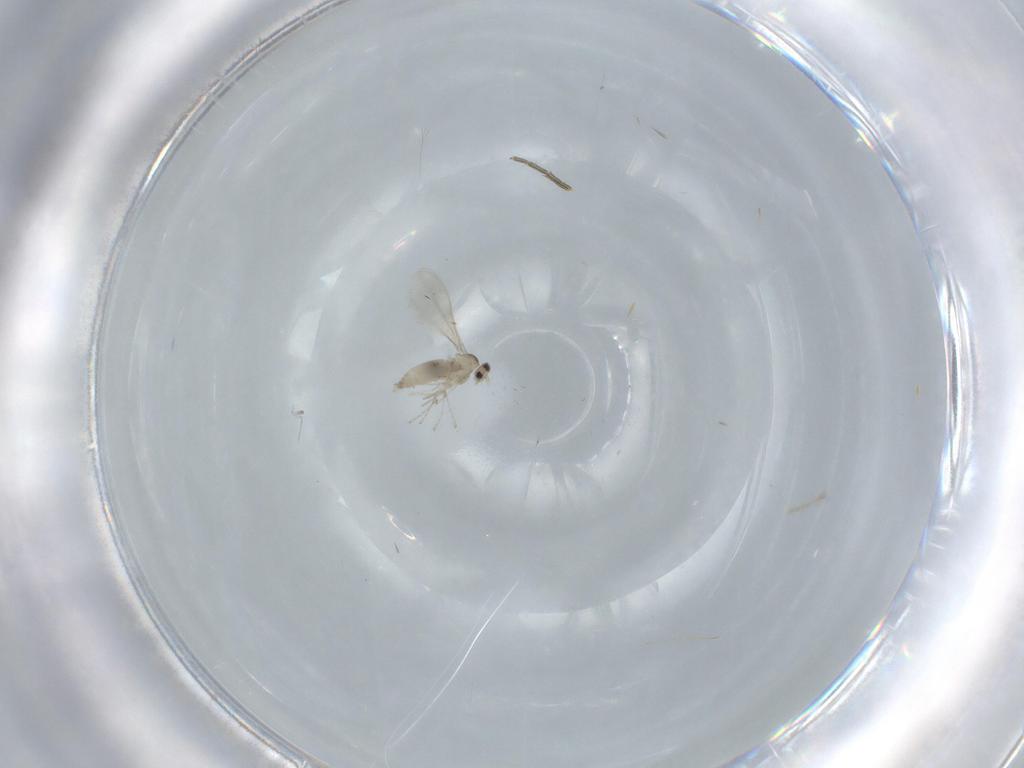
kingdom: Animalia
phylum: Arthropoda
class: Insecta
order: Diptera
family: Cecidomyiidae
